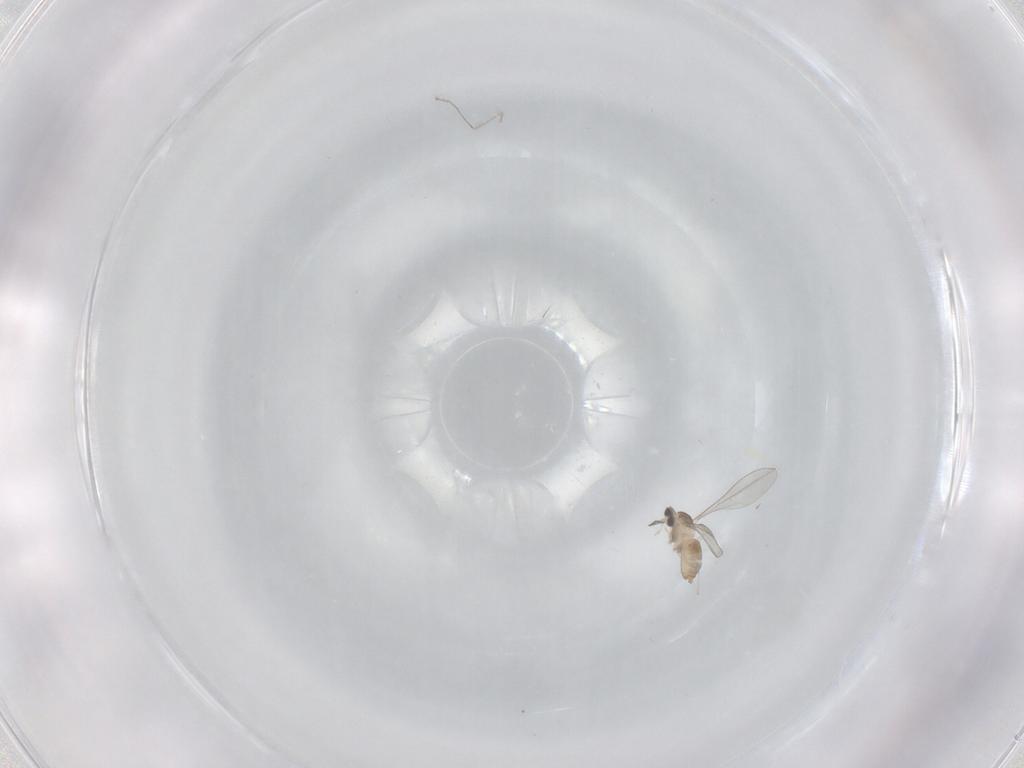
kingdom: Animalia
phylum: Arthropoda
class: Insecta
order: Diptera
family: Cecidomyiidae
